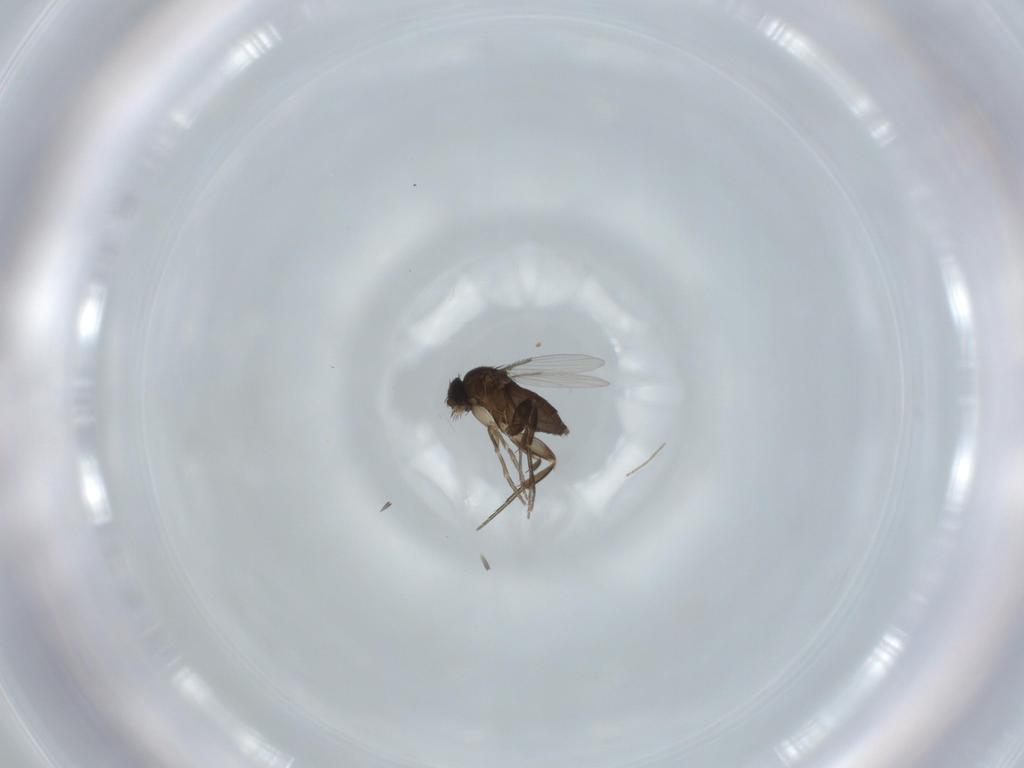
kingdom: Animalia
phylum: Arthropoda
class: Insecta
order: Diptera
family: Chironomidae
